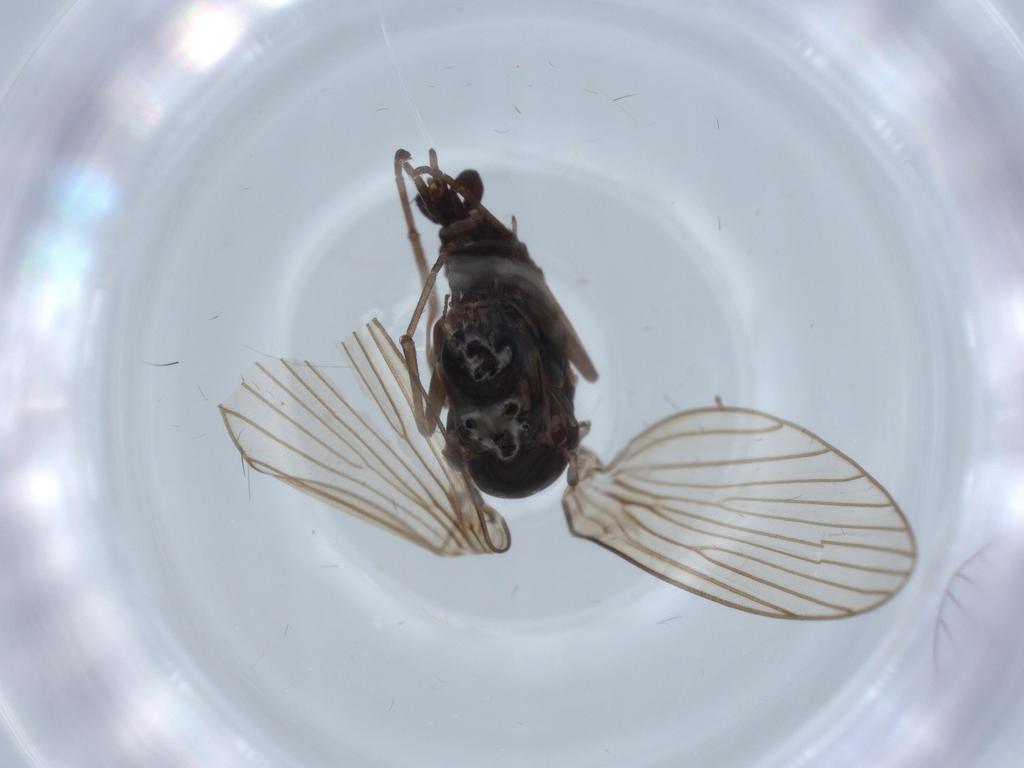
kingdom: Animalia
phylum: Arthropoda
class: Insecta
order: Diptera
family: Psychodidae
